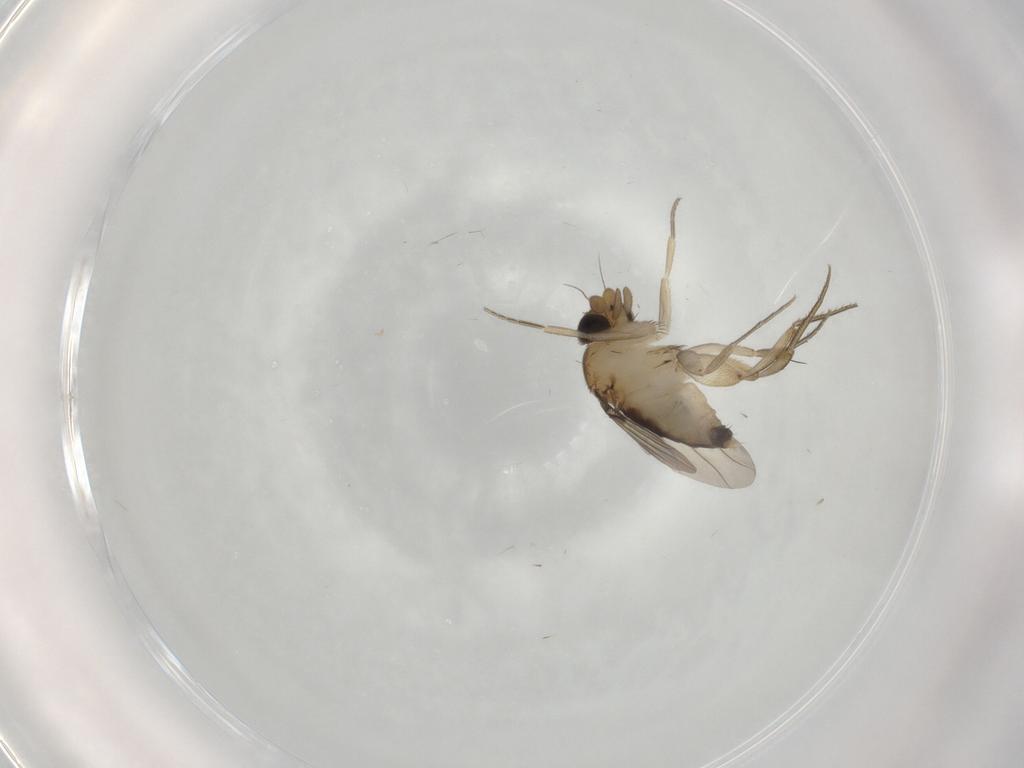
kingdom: Animalia
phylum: Arthropoda
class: Insecta
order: Diptera
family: Phoridae
